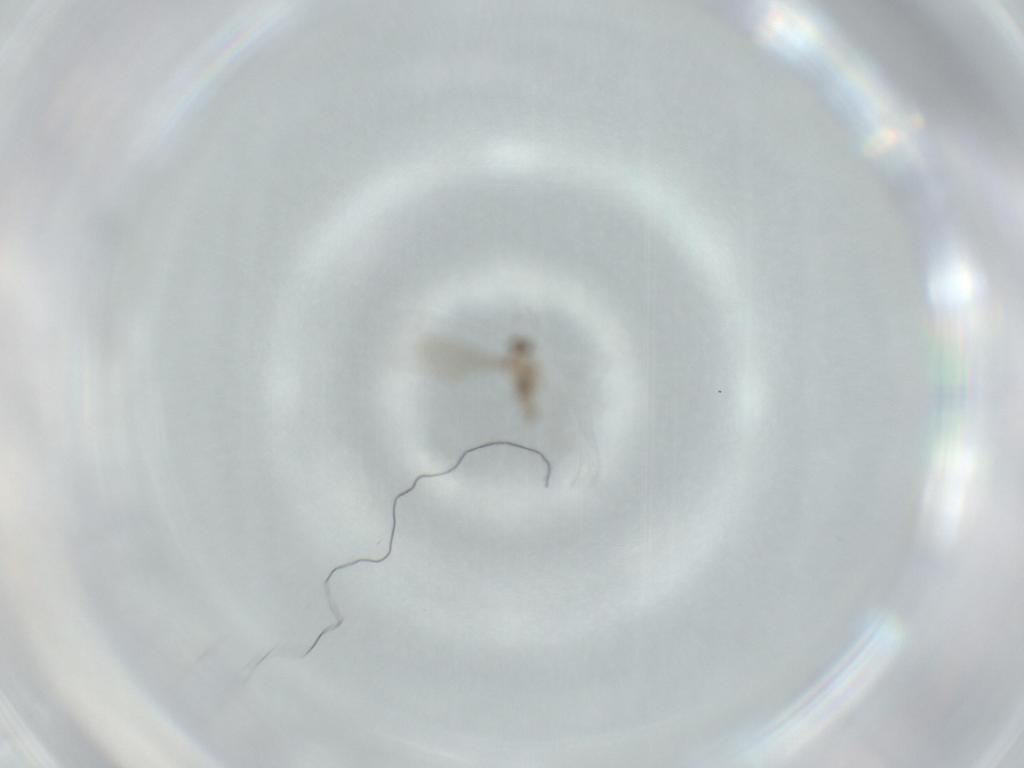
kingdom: Animalia
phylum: Arthropoda
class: Insecta
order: Diptera
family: Cecidomyiidae
